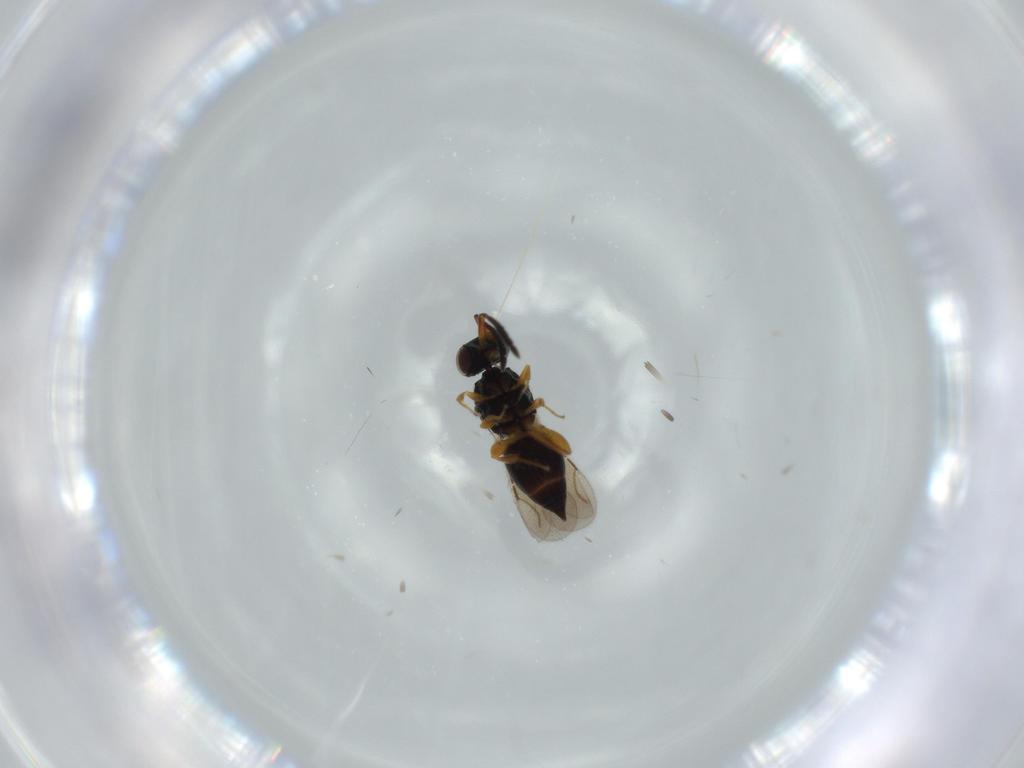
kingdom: Animalia
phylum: Arthropoda
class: Insecta
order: Hymenoptera
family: Ceraphronidae
